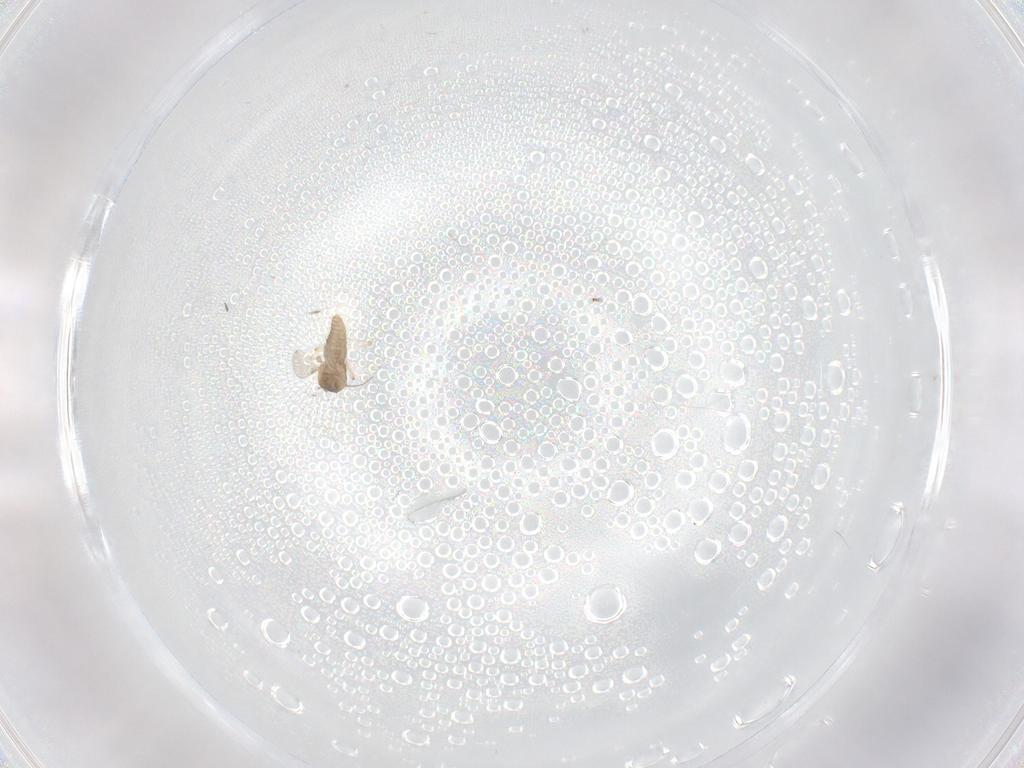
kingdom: Animalia
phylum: Arthropoda
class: Insecta
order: Diptera
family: Ceratopogonidae
